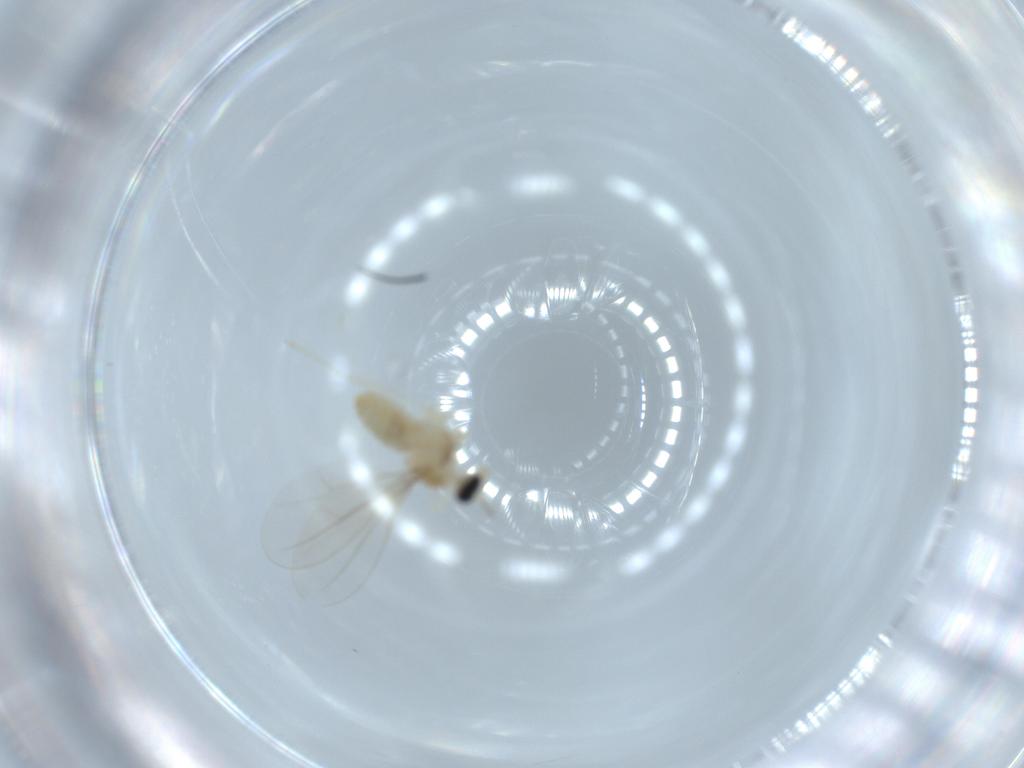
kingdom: Animalia
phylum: Arthropoda
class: Insecta
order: Diptera
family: Cecidomyiidae
